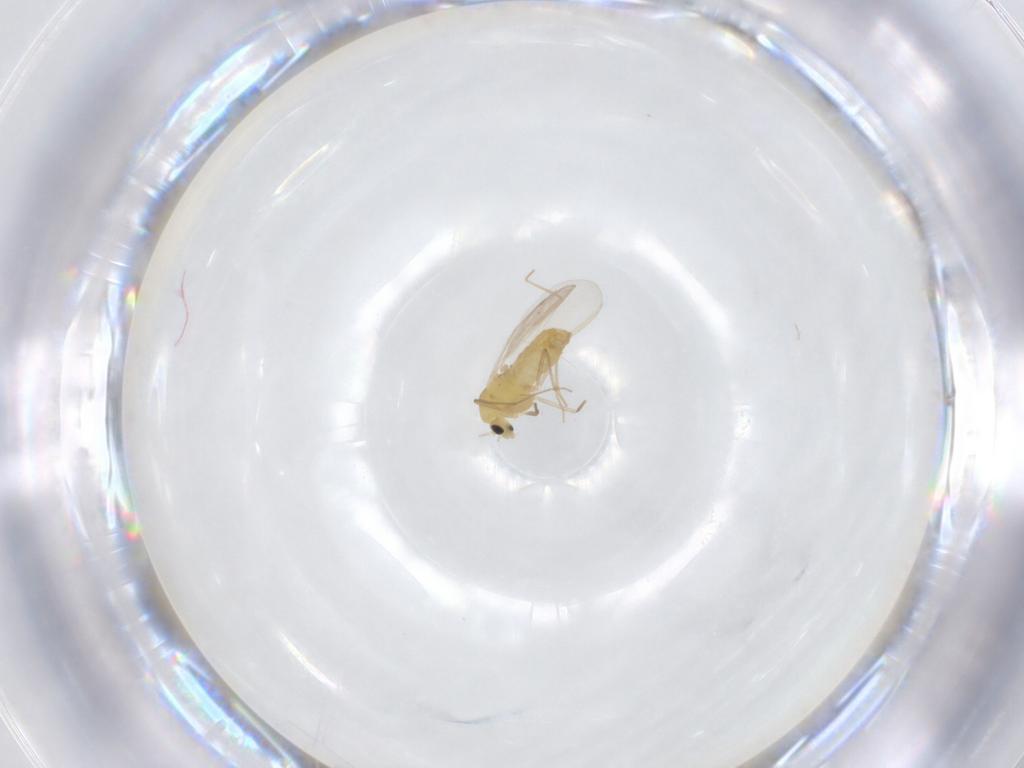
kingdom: Animalia
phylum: Arthropoda
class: Insecta
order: Diptera
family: Chironomidae
